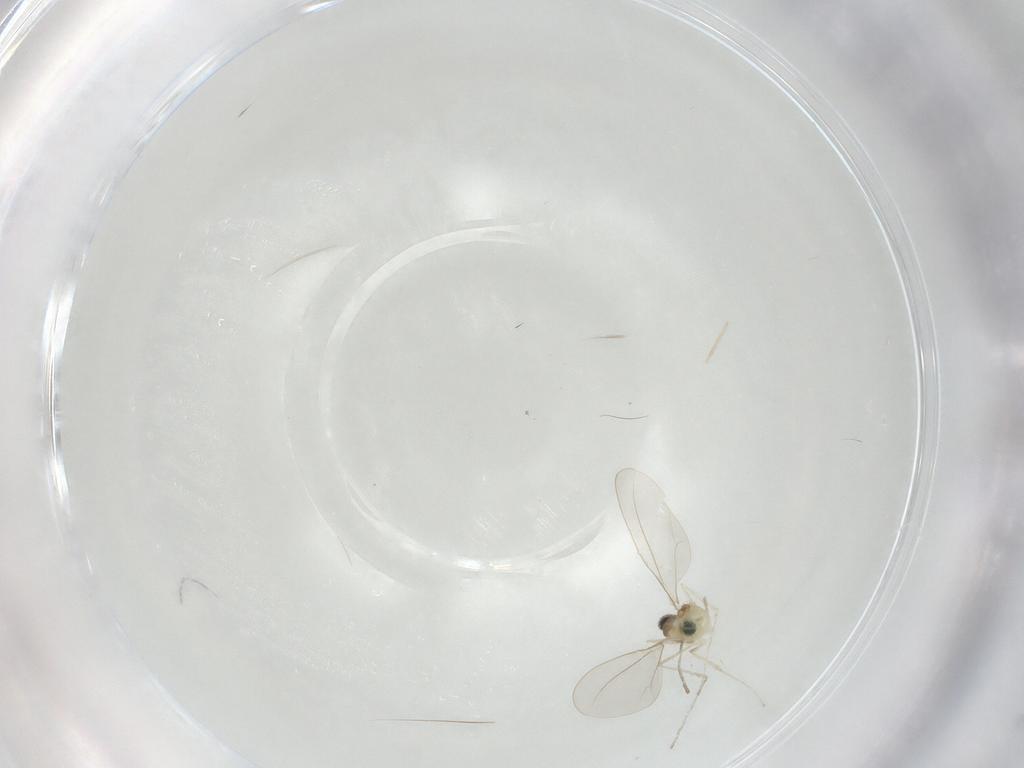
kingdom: Animalia
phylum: Arthropoda
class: Insecta
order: Diptera
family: Cecidomyiidae
